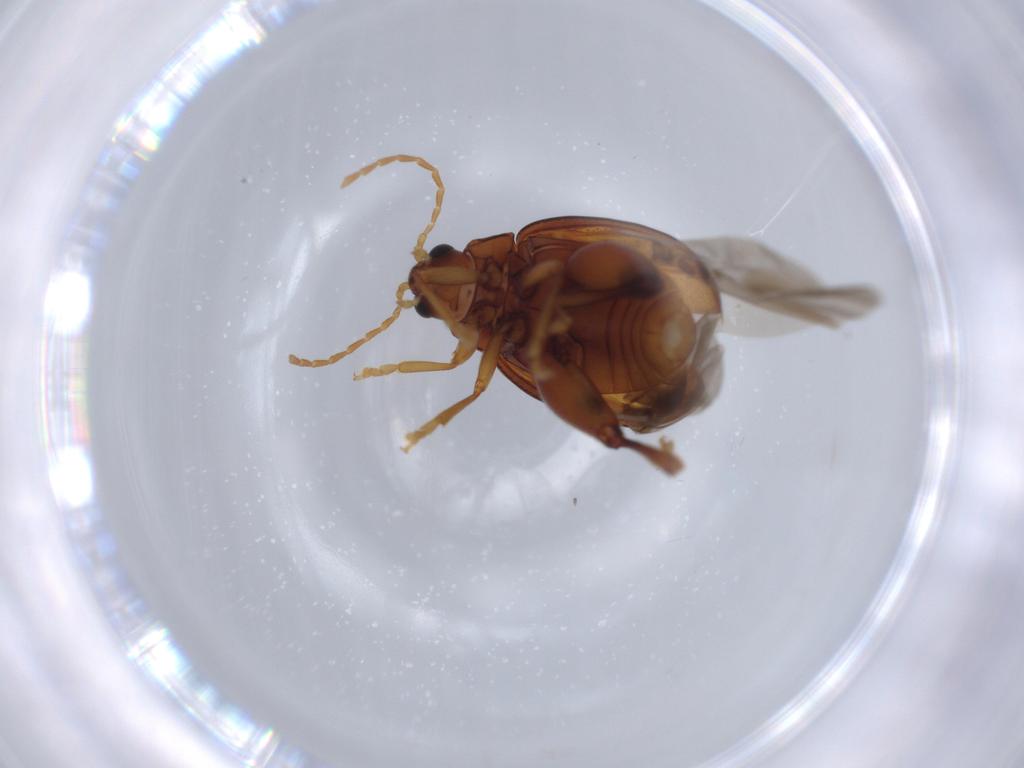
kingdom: Animalia
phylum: Arthropoda
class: Insecta
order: Coleoptera
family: Chrysomelidae
